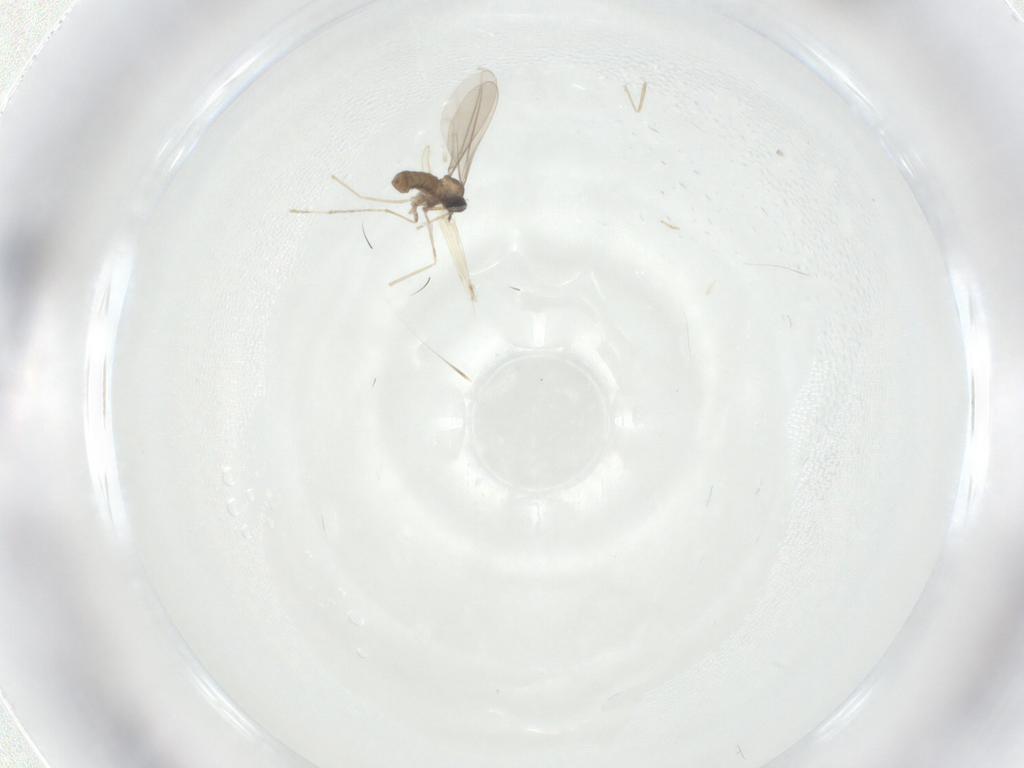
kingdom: Animalia
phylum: Arthropoda
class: Insecta
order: Diptera
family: Cecidomyiidae
